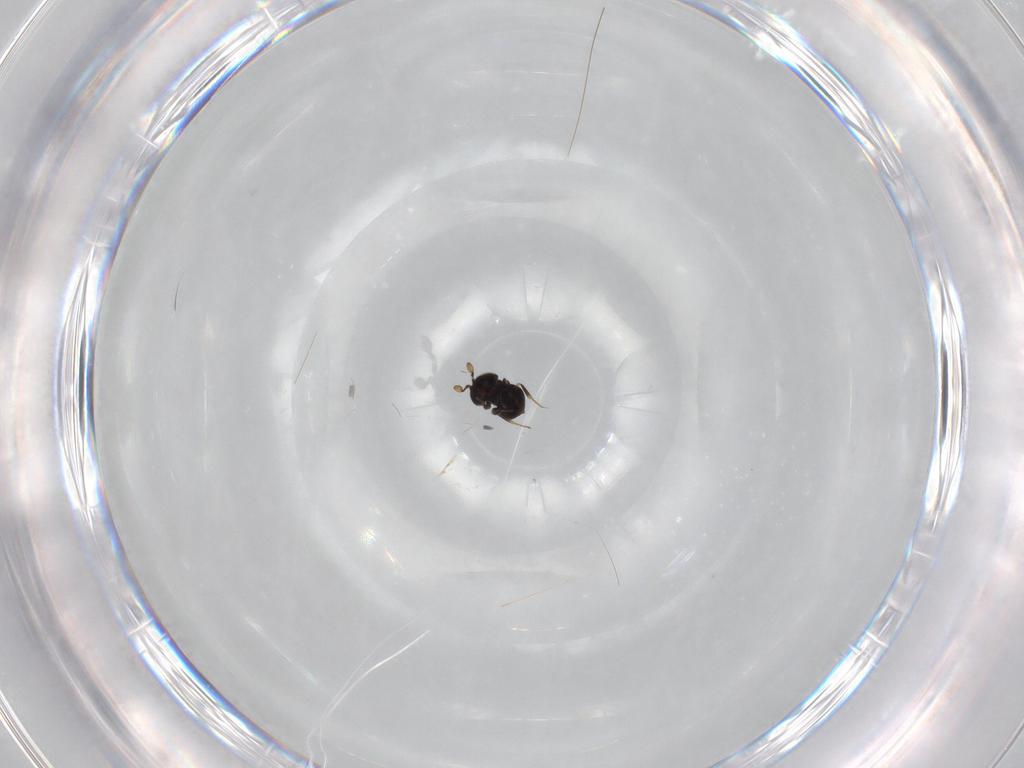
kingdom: Animalia
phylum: Arthropoda
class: Insecta
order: Hymenoptera
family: Scelionidae
